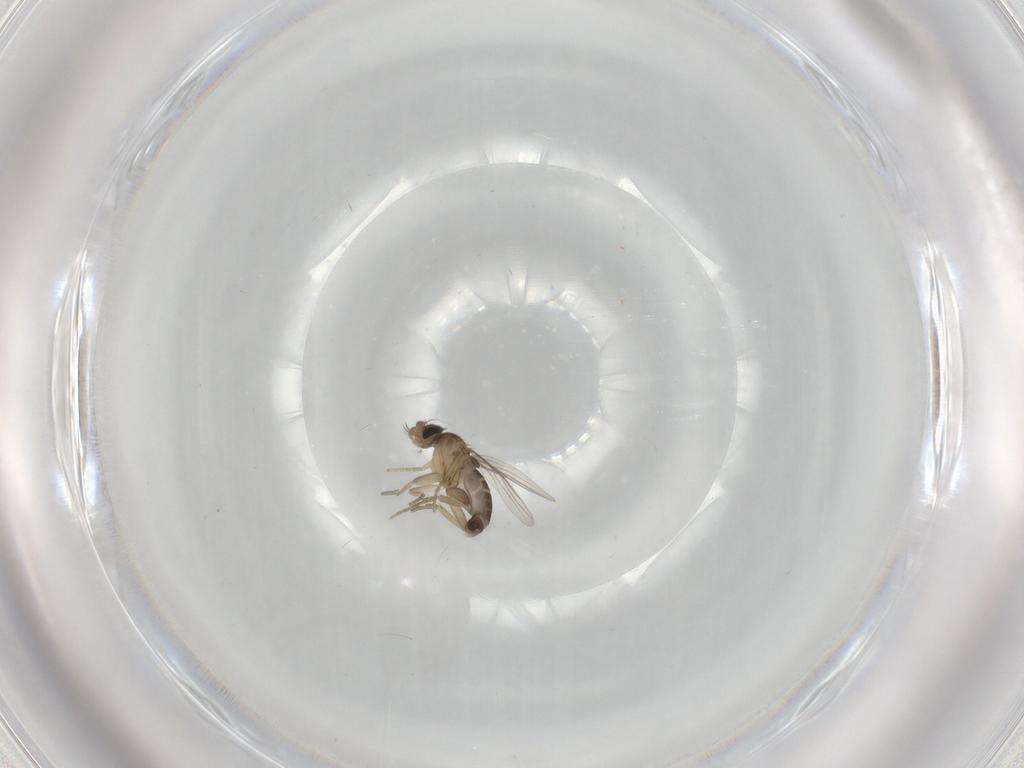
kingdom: Animalia
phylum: Arthropoda
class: Insecta
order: Diptera
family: Phoridae
